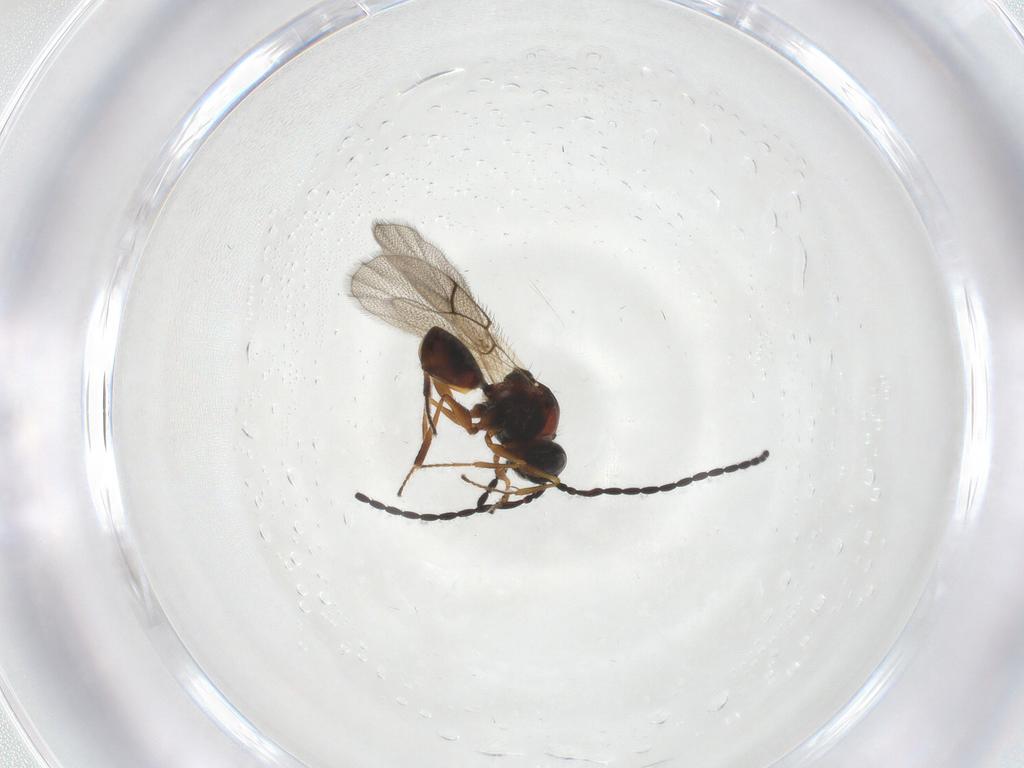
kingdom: Animalia
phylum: Arthropoda
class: Insecta
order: Hymenoptera
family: Figitidae
